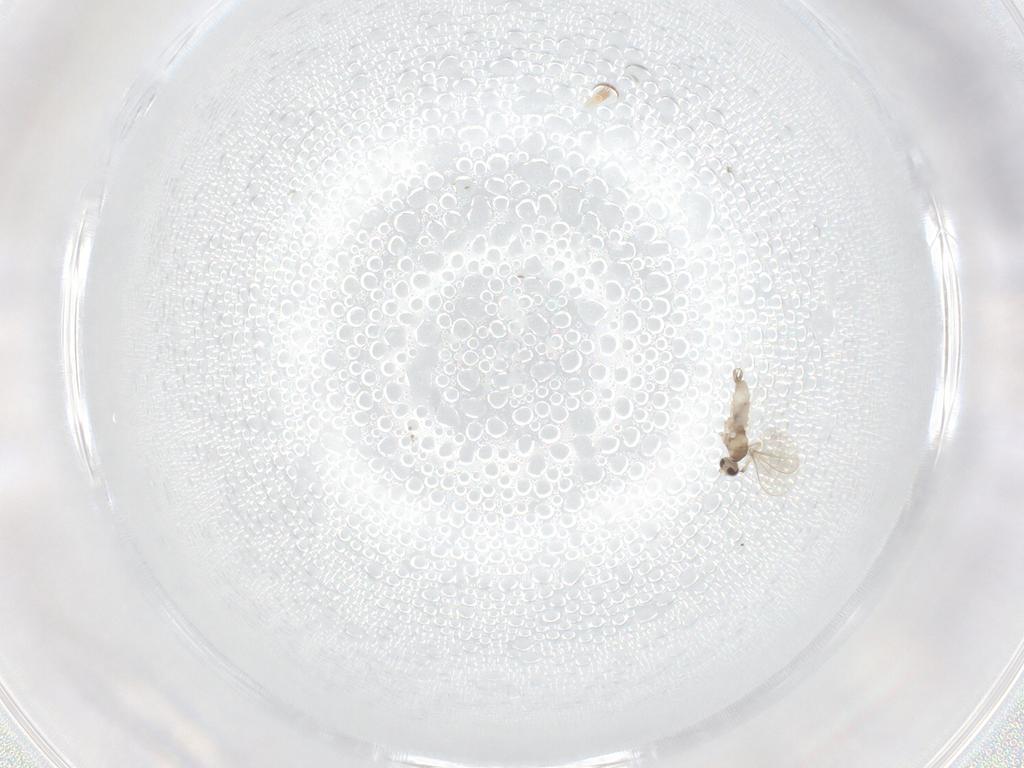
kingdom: Animalia
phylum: Arthropoda
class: Insecta
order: Diptera
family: Cecidomyiidae
